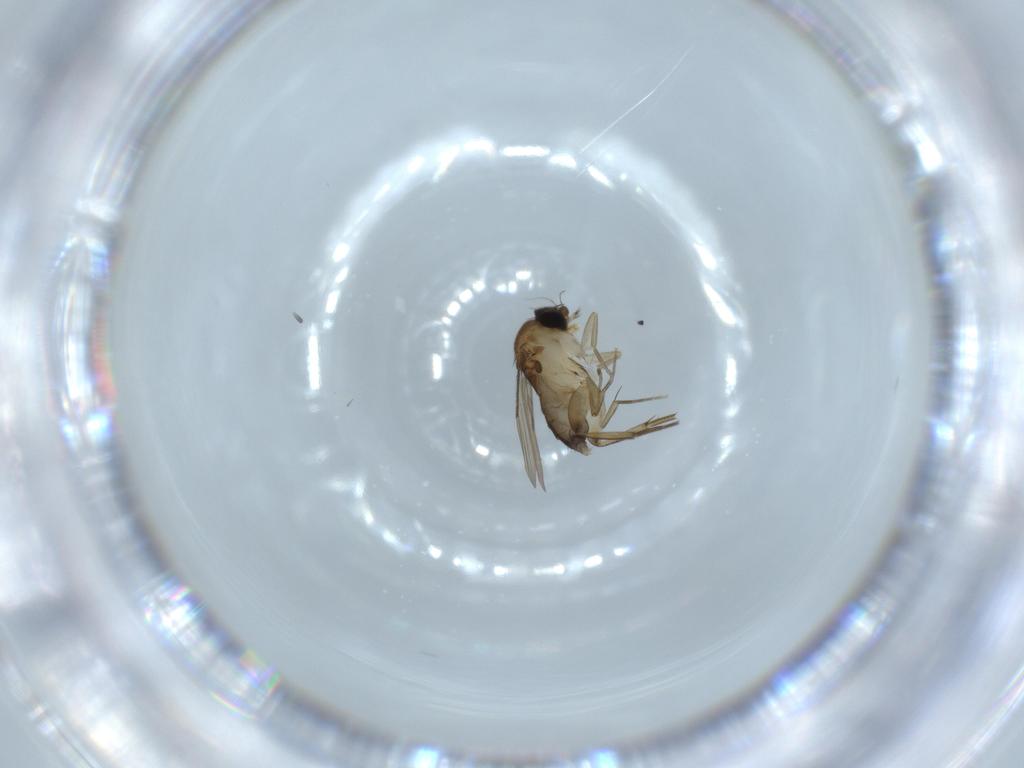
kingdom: Animalia
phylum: Arthropoda
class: Insecta
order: Diptera
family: Phoridae
